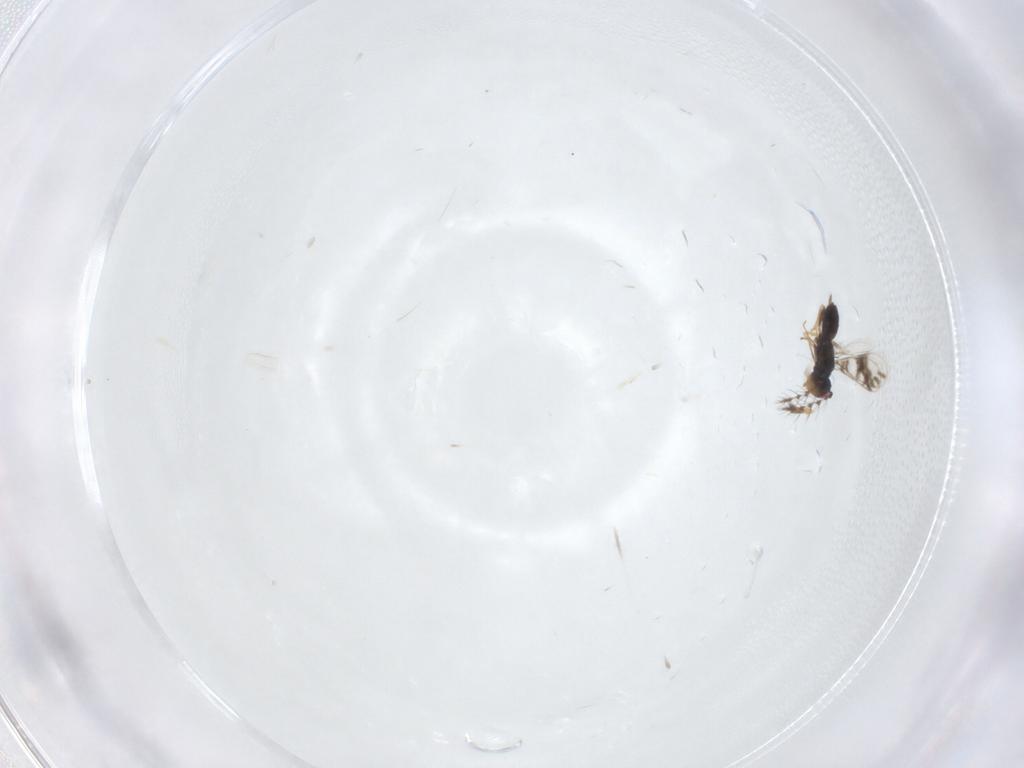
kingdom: Animalia
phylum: Arthropoda
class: Insecta
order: Hymenoptera
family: Eulophidae
